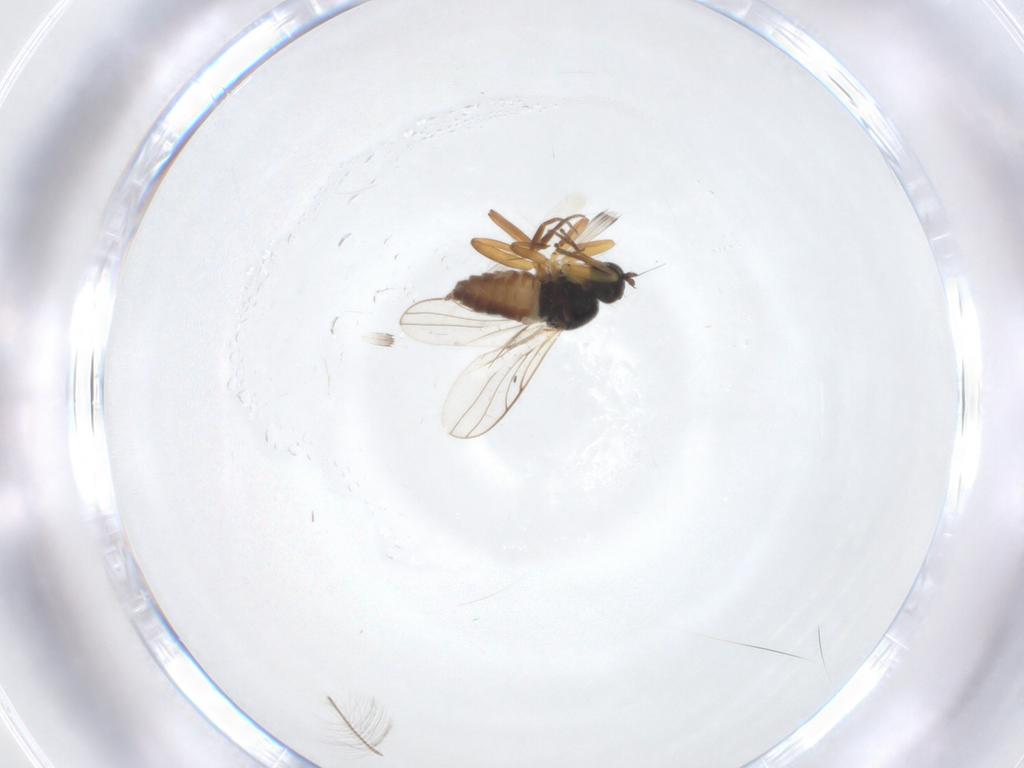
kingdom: Animalia
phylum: Arthropoda
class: Insecta
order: Diptera
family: Hybotidae
